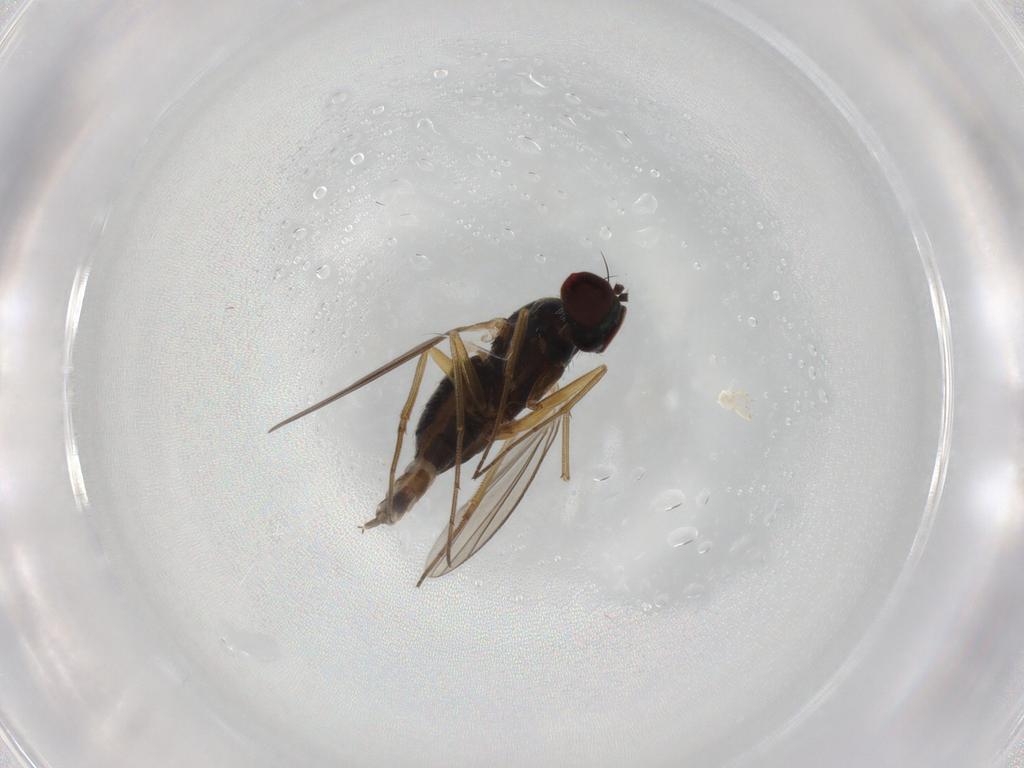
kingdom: Animalia
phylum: Arthropoda
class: Insecta
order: Diptera
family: Dolichopodidae
